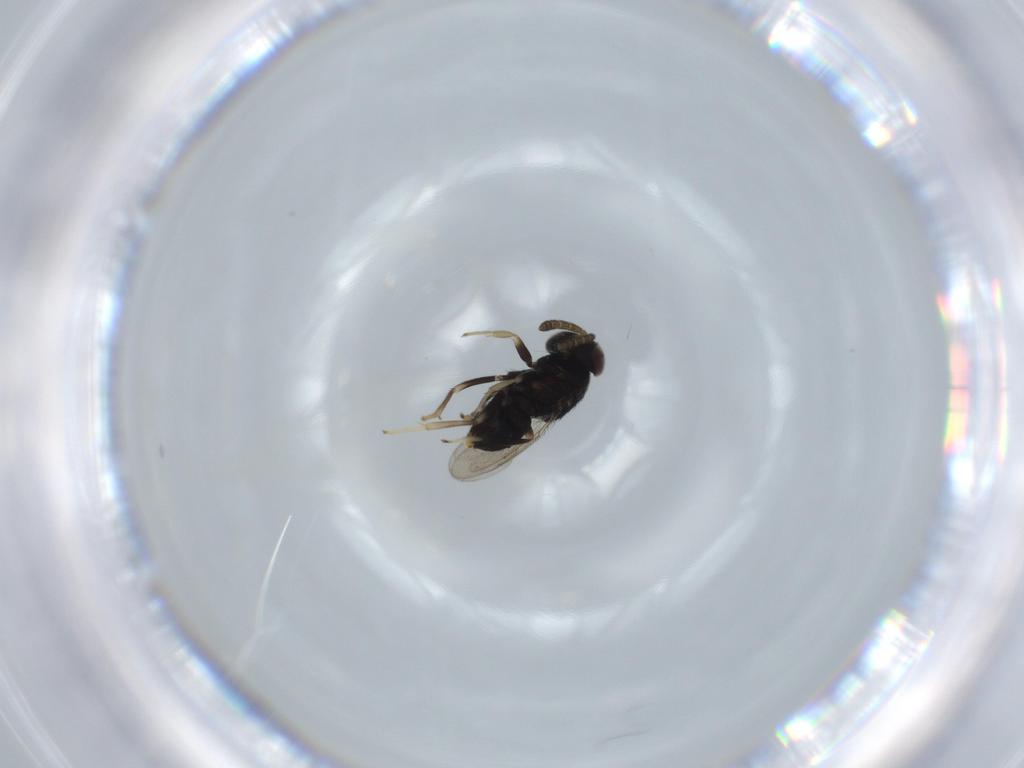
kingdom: Animalia
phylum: Arthropoda
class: Insecta
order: Hymenoptera
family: Aphelinidae
